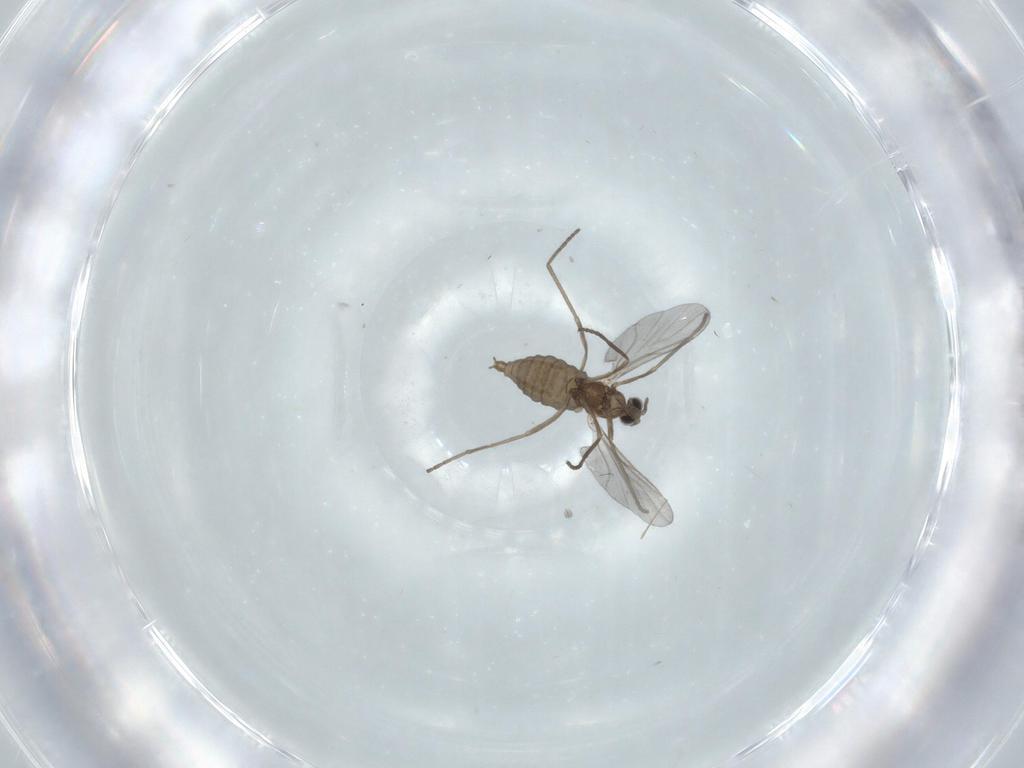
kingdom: Animalia
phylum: Arthropoda
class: Insecta
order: Diptera
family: Cecidomyiidae
